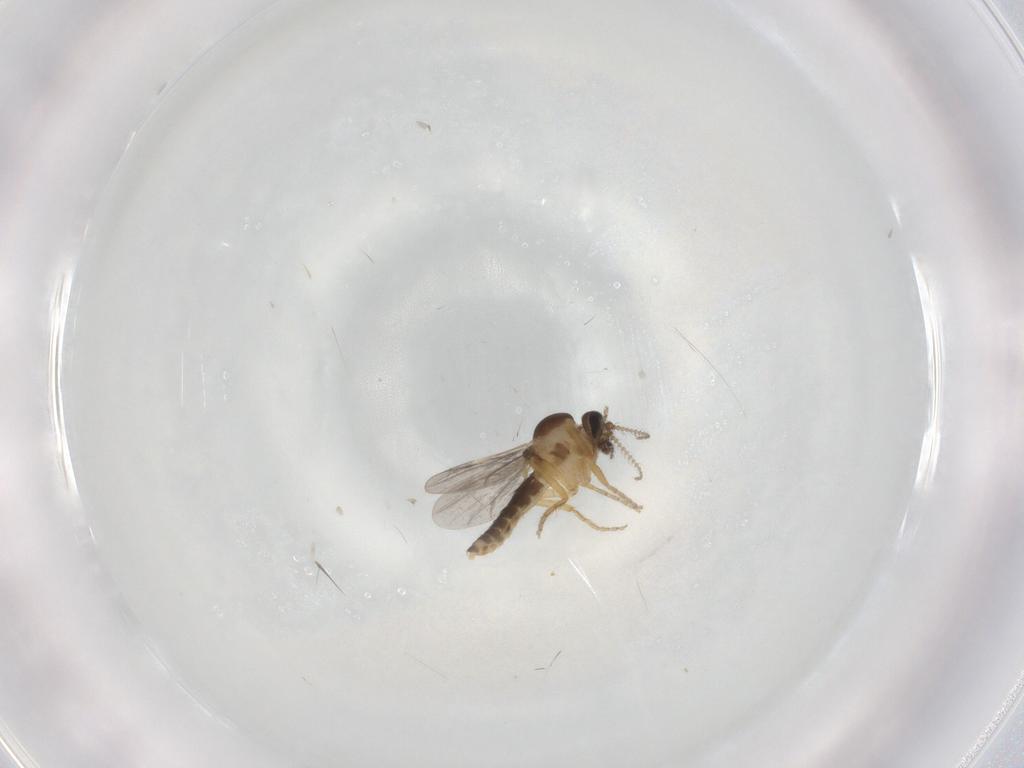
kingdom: Animalia
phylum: Arthropoda
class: Insecta
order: Diptera
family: Ceratopogonidae
